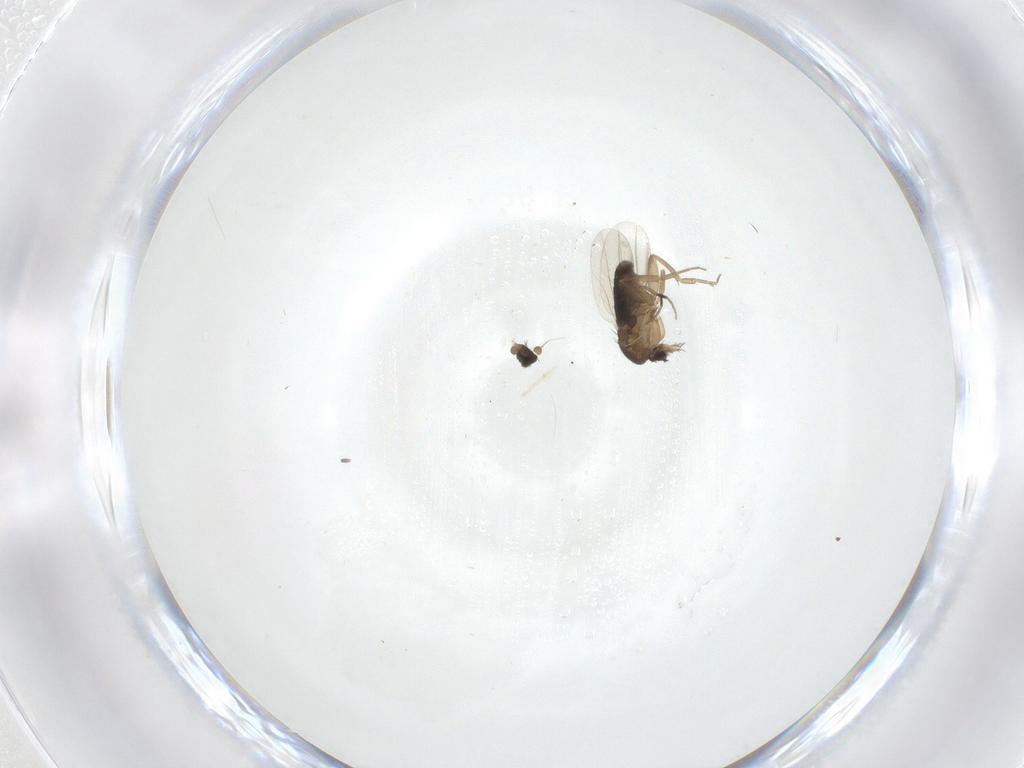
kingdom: Animalia
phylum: Arthropoda
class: Insecta
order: Diptera
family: Phoridae
